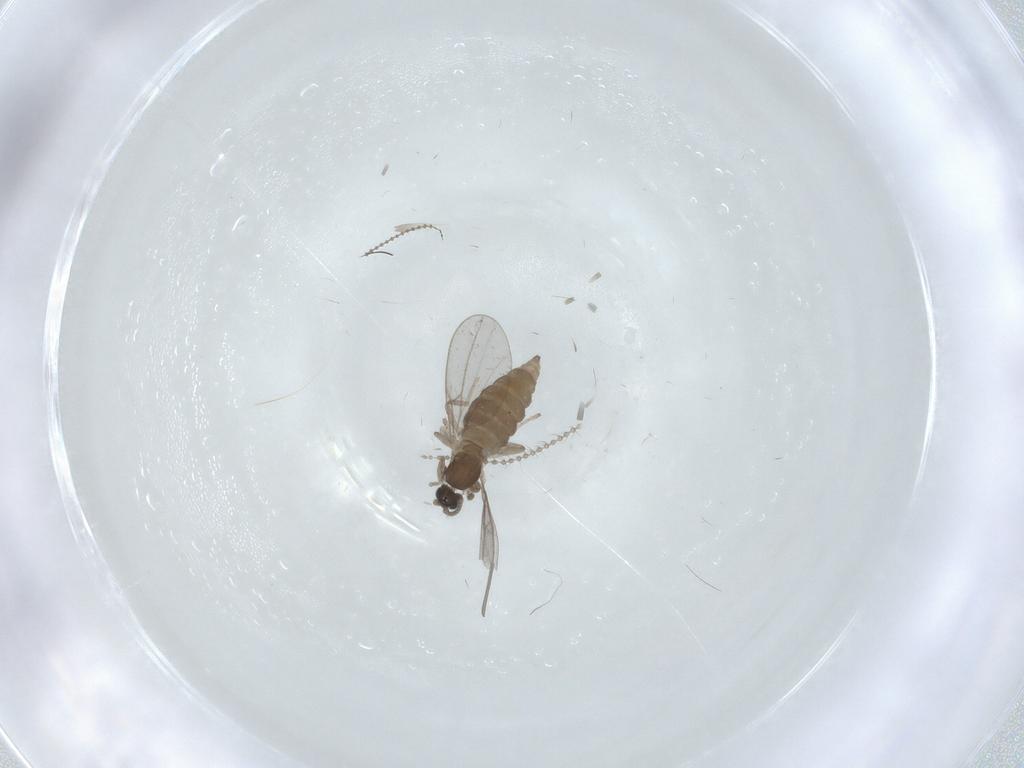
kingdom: Animalia
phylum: Arthropoda
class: Insecta
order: Diptera
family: Cecidomyiidae
